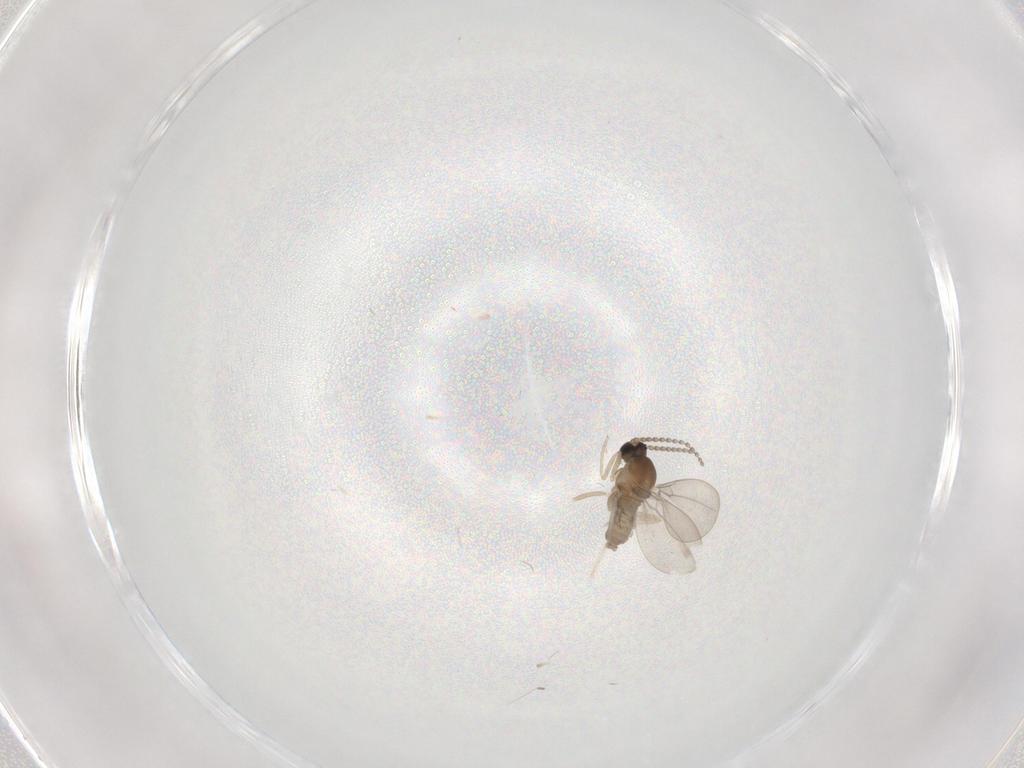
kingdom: Animalia
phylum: Arthropoda
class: Insecta
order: Diptera
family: Cecidomyiidae
